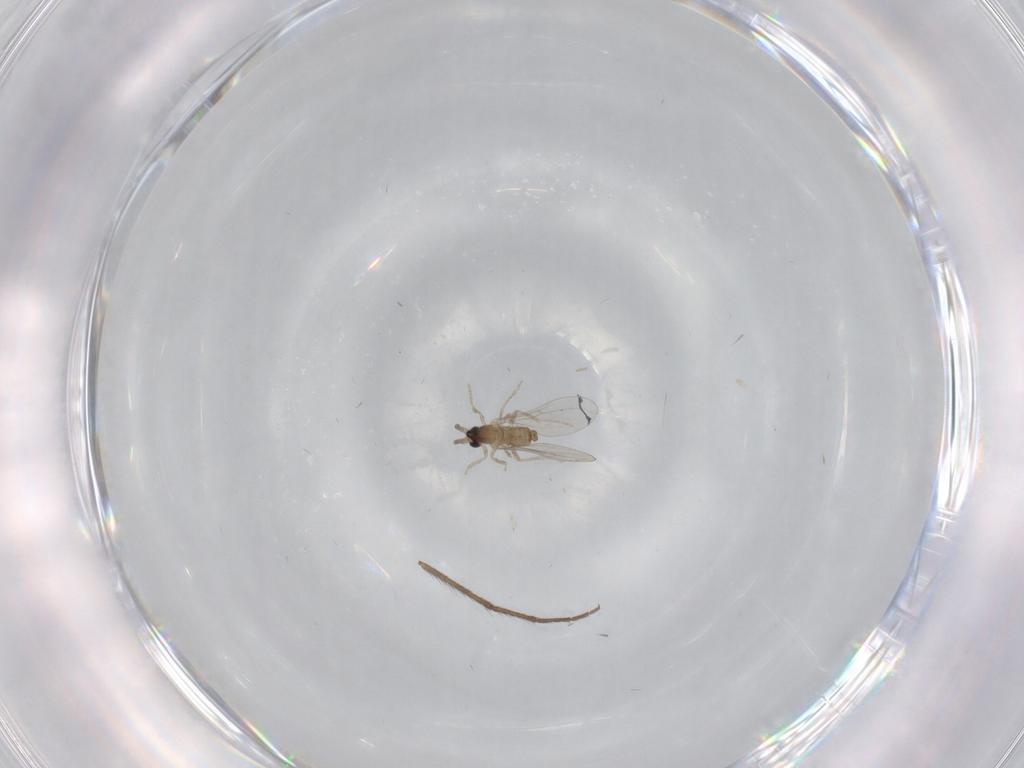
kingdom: Animalia
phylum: Arthropoda
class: Insecta
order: Diptera
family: Cecidomyiidae
